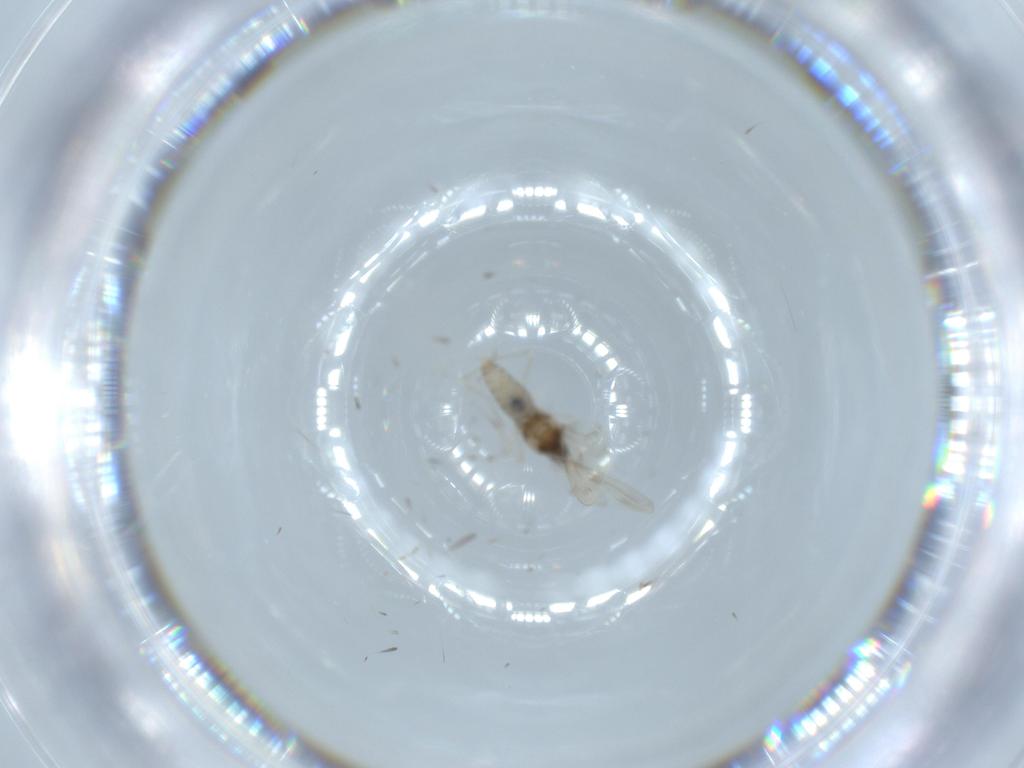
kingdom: Animalia
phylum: Arthropoda
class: Insecta
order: Diptera
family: Cecidomyiidae
